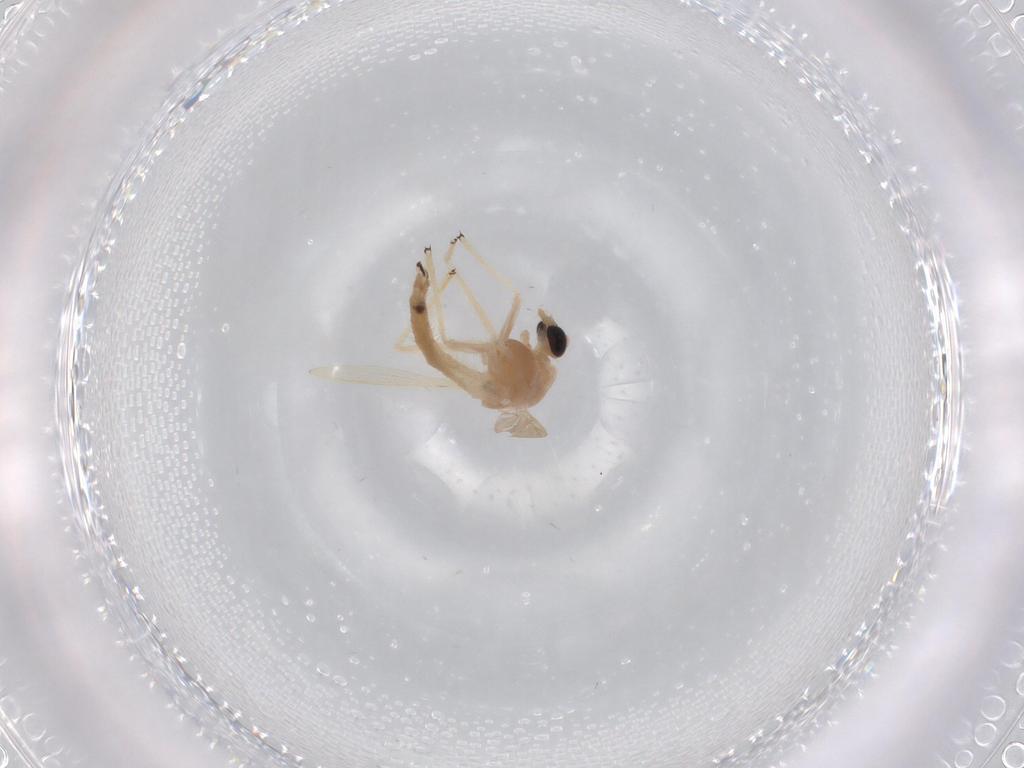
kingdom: Animalia
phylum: Arthropoda
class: Insecta
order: Diptera
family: Chironomidae
